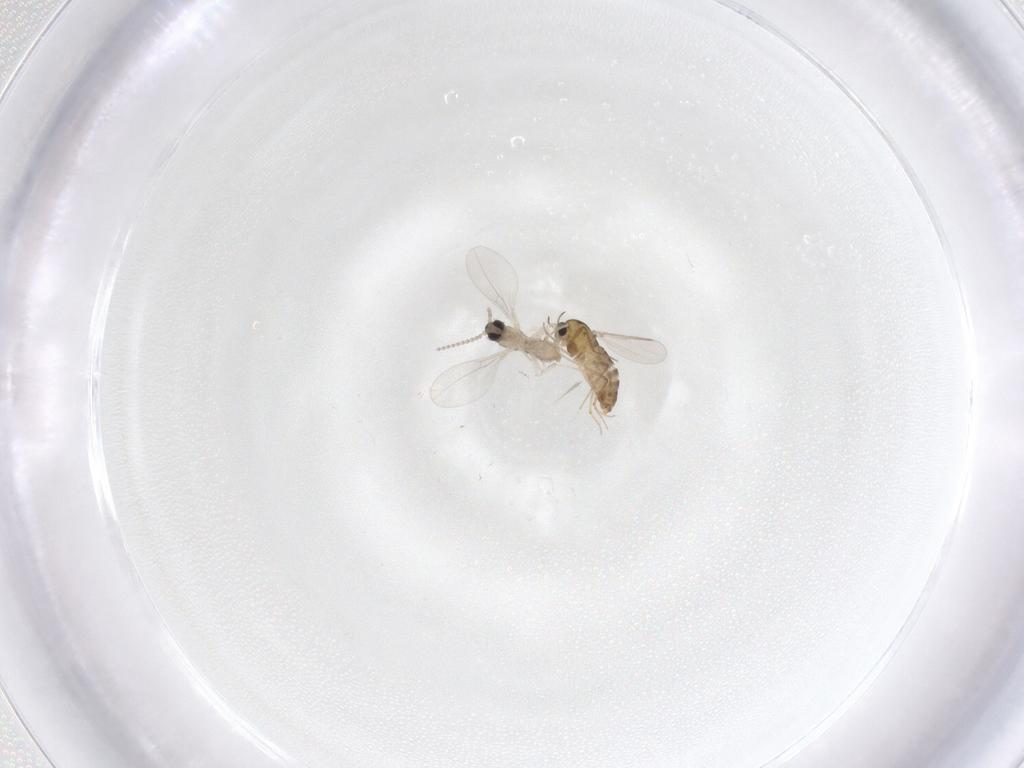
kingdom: Animalia
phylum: Arthropoda
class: Insecta
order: Diptera
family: Chironomidae
